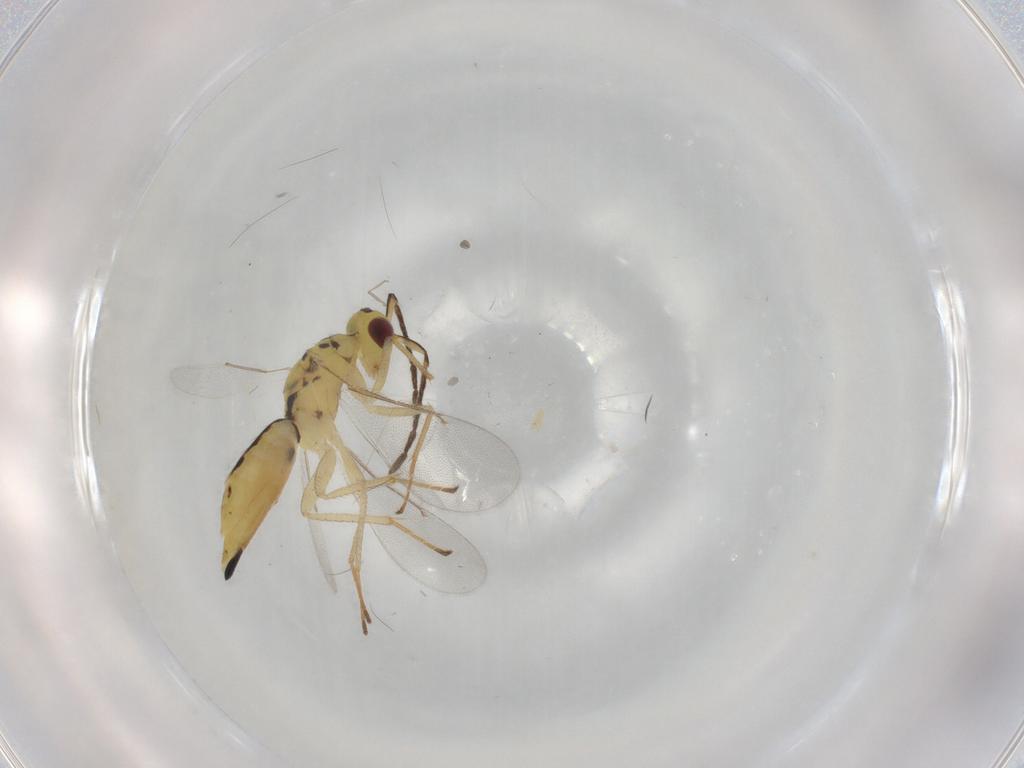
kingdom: Animalia
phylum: Arthropoda
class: Insecta
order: Hymenoptera
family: Eulophidae
